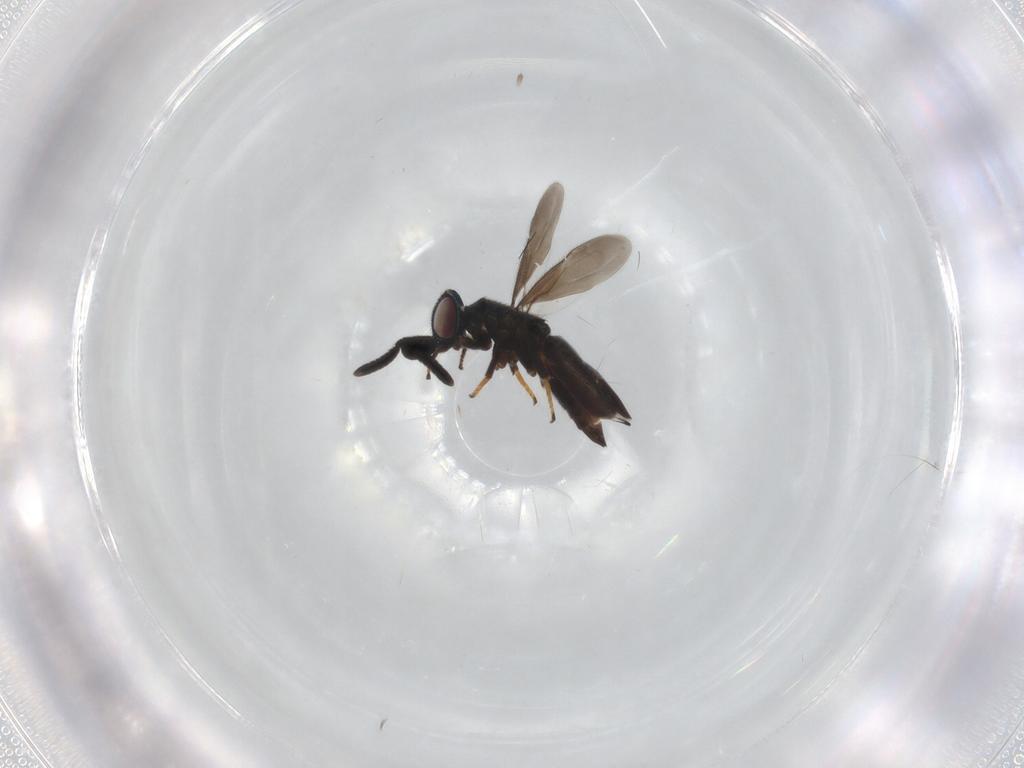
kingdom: Animalia
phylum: Arthropoda
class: Insecta
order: Hymenoptera
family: Encyrtidae
